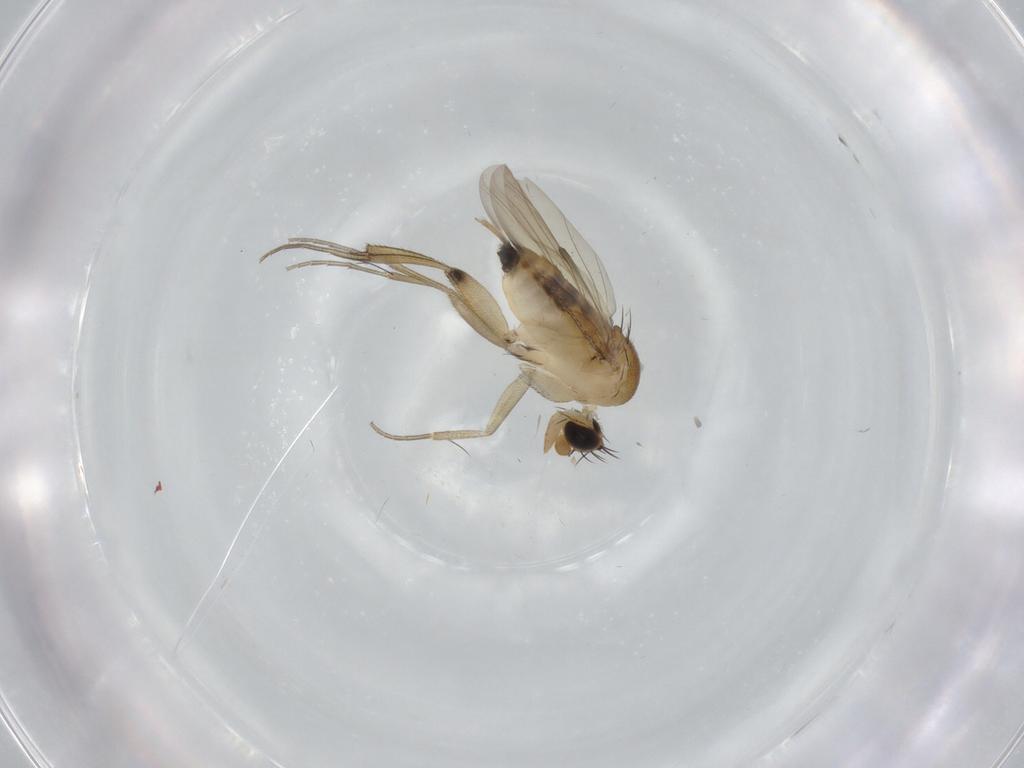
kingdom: Animalia
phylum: Arthropoda
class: Insecta
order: Diptera
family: Phoridae
